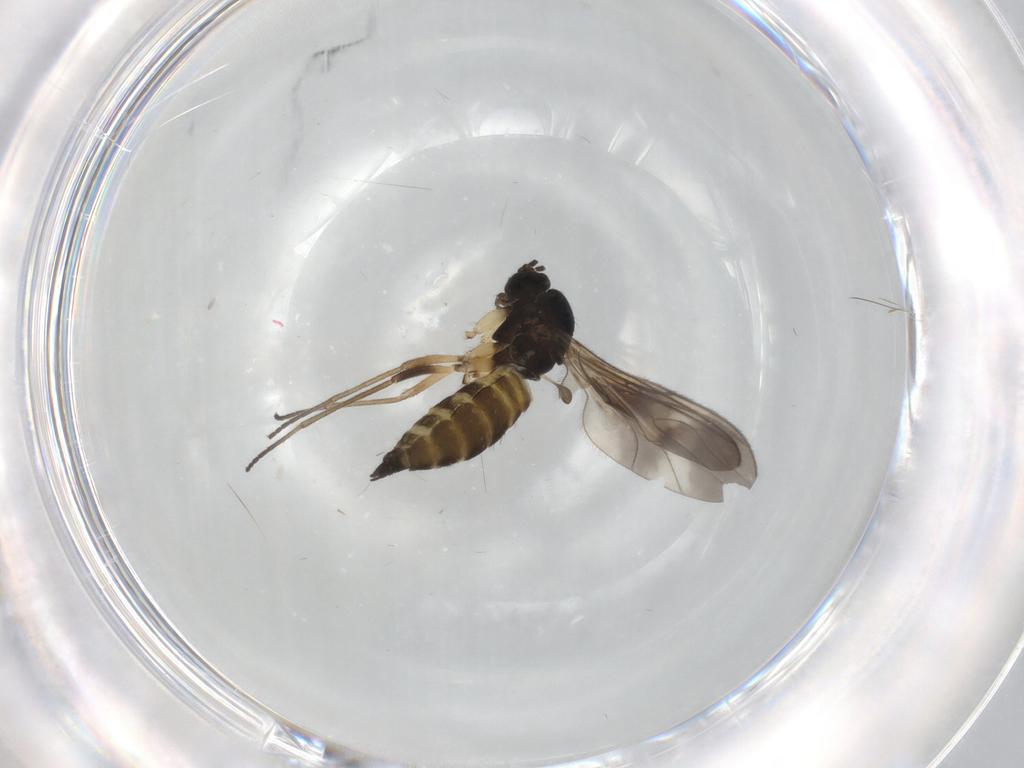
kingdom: Animalia
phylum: Arthropoda
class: Insecta
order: Diptera
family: Sciaridae
